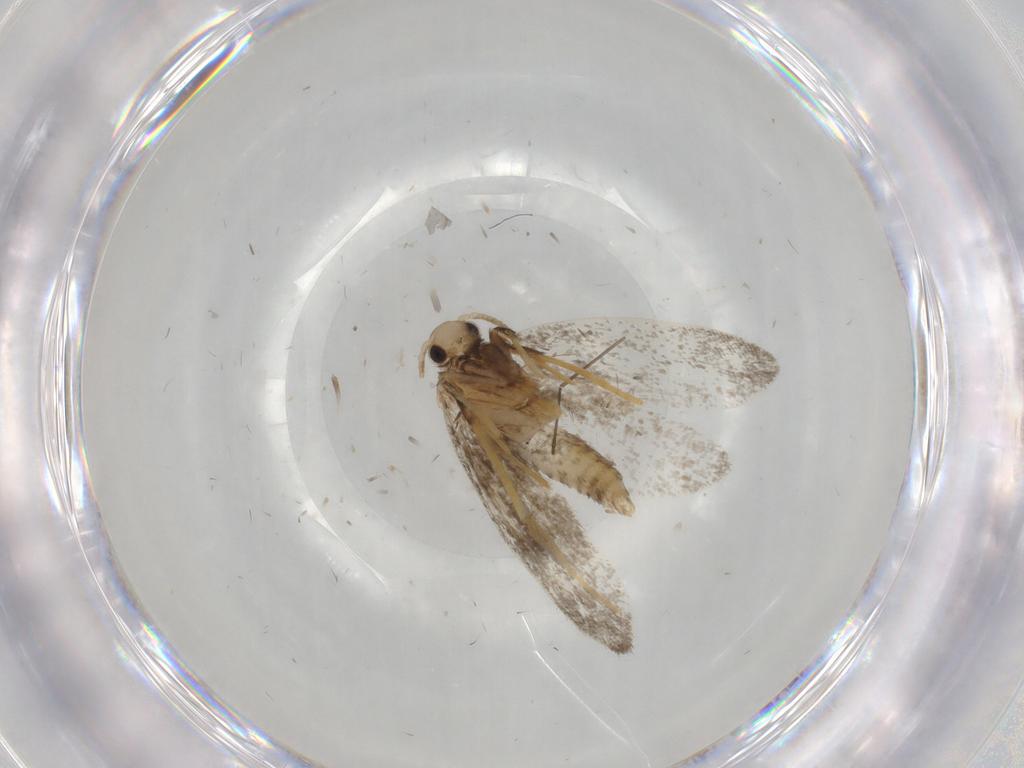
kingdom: Animalia
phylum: Arthropoda
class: Insecta
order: Lepidoptera
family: Psychidae
